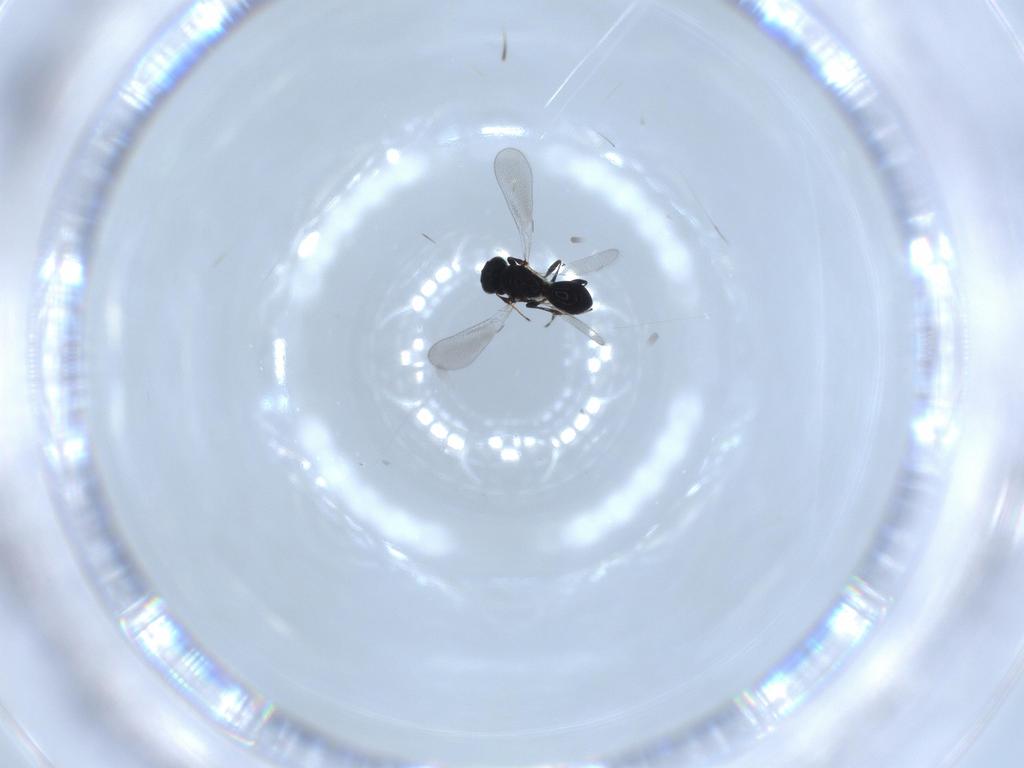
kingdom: Animalia
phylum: Arthropoda
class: Insecta
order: Hymenoptera
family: Platygastridae
